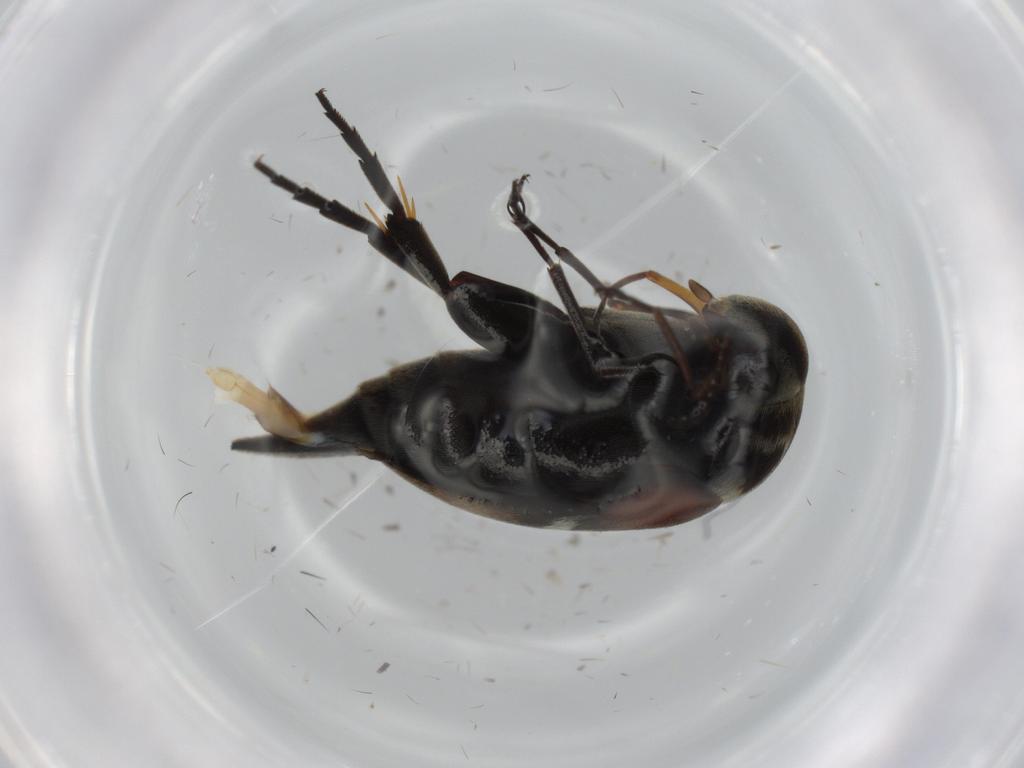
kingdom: Animalia
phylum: Arthropoda
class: Insecta
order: Coleoptera
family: Mordellidae
